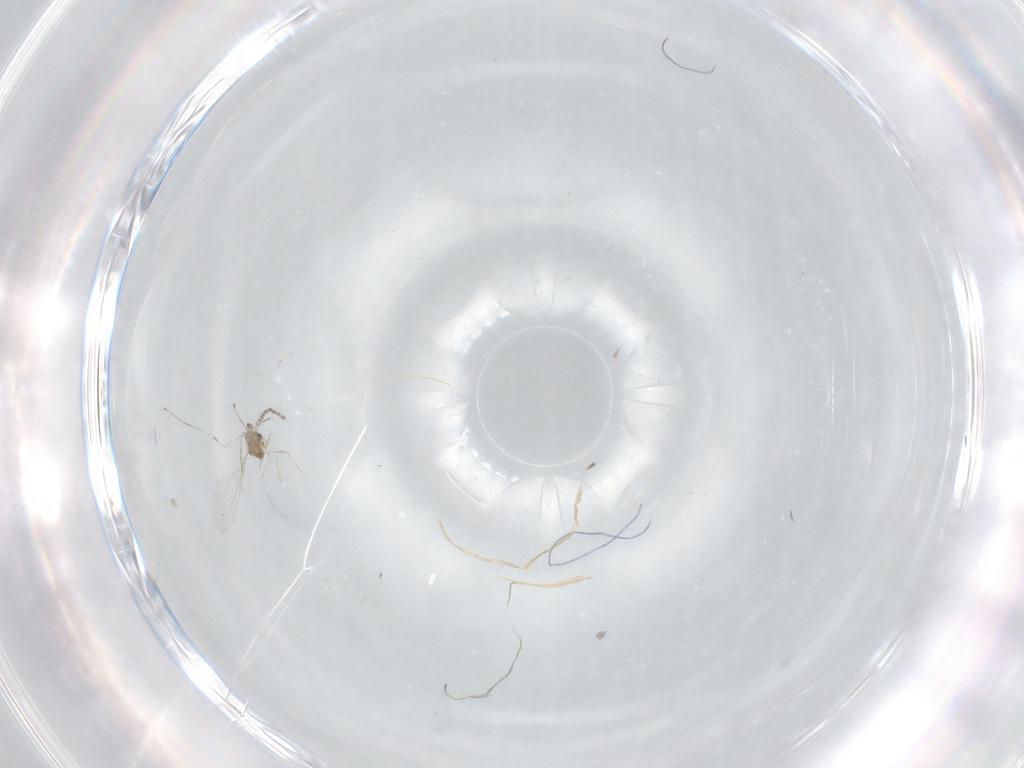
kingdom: Animalia
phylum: Arthropoda
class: Insecta
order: Diptera
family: Cecidomyiidae
